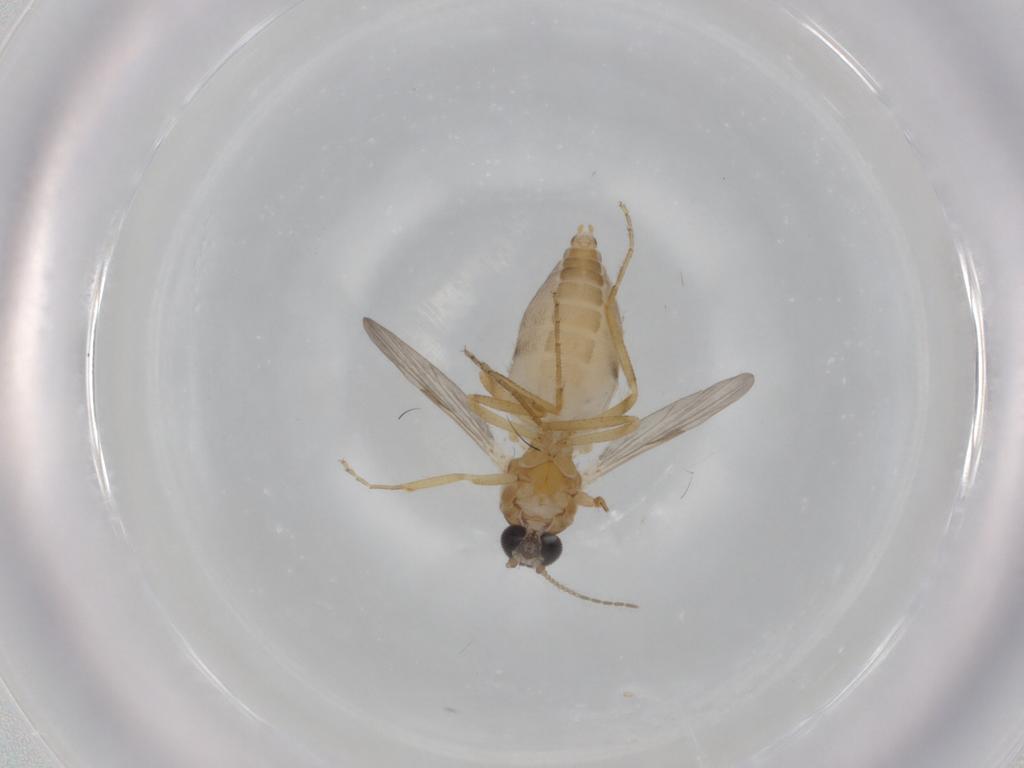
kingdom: Animalia
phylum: Arthropoda
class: Insecta
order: Diptera
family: Ceratopogonidae
